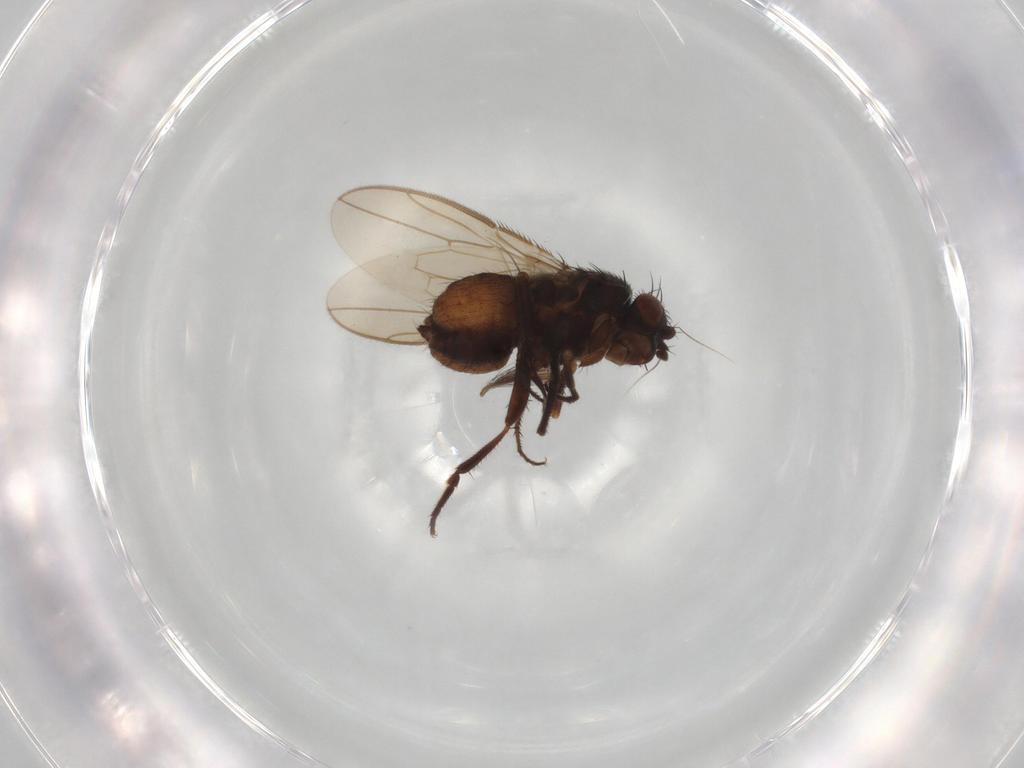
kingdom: Animalia
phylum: Arthropoda
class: Insecta
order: Diptera
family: Sphaeroceridae
